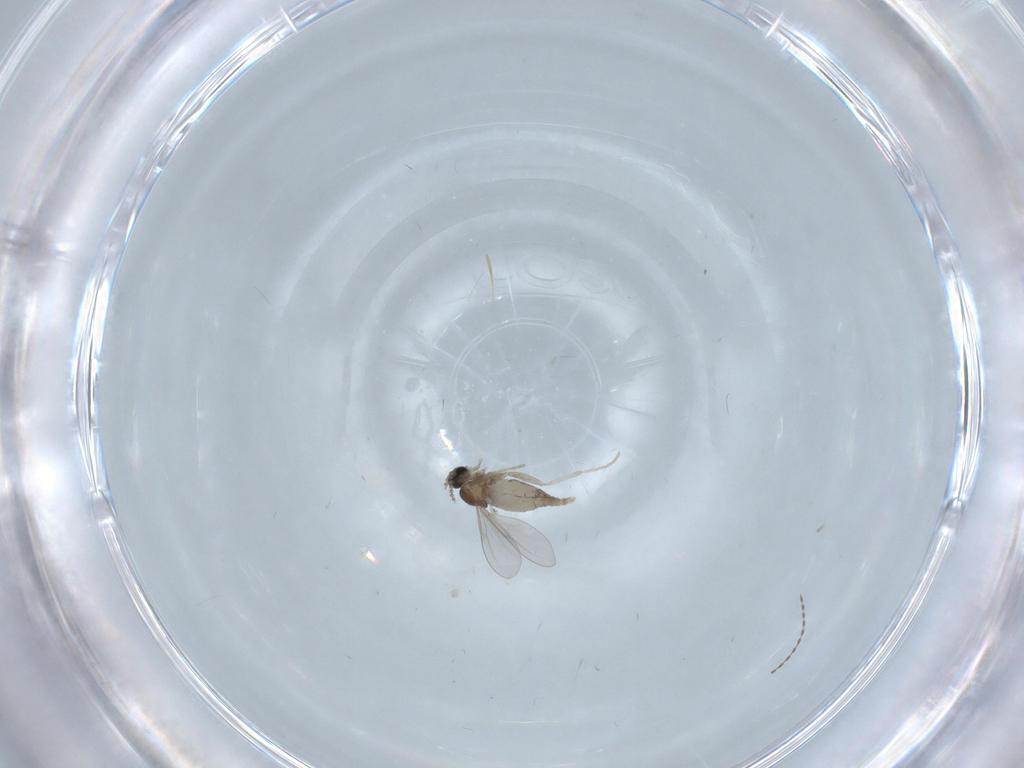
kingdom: Animalia
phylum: Arthropoda
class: Insecta
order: Diptera
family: Cecidomyiidae
